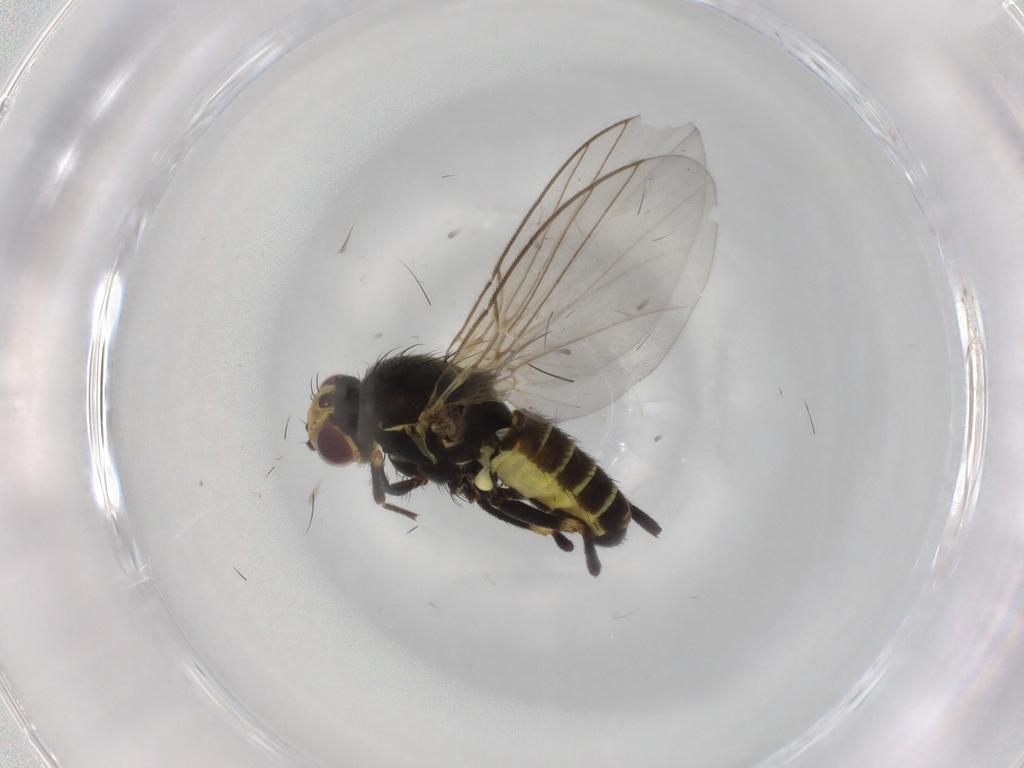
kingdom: Animalia
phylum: Arthropoda
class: Insecta
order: Diptera
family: Agromyzidae
